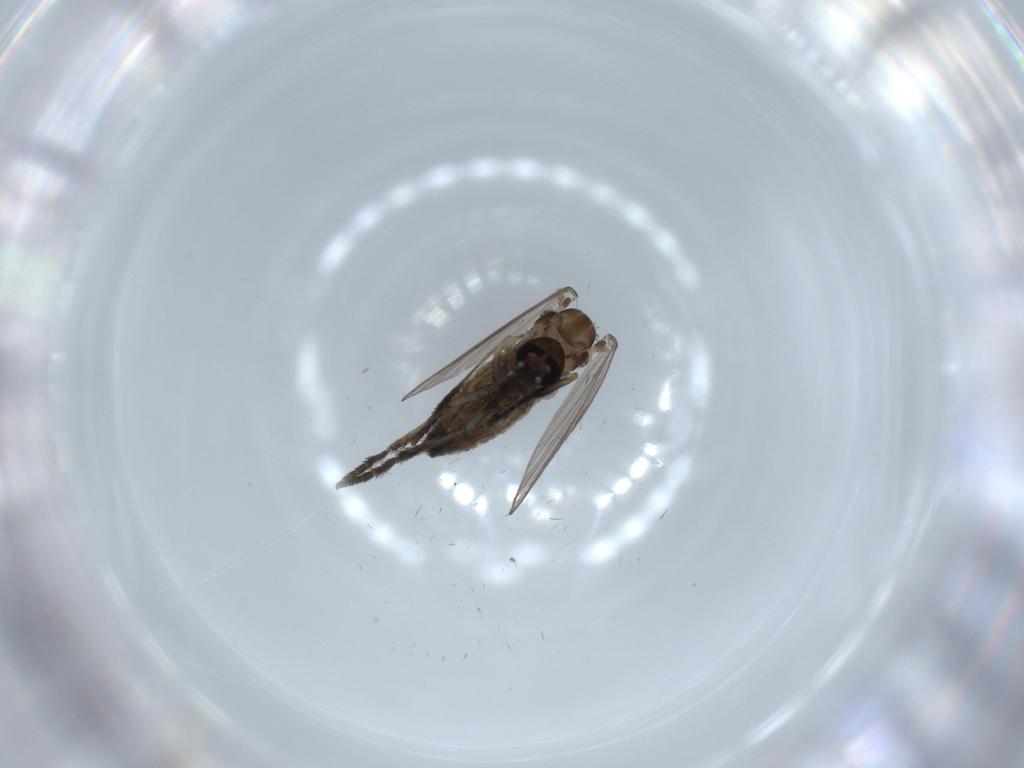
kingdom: Animalia
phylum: Arthropoda
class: Insecta
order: Diptera
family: Psychodidae
